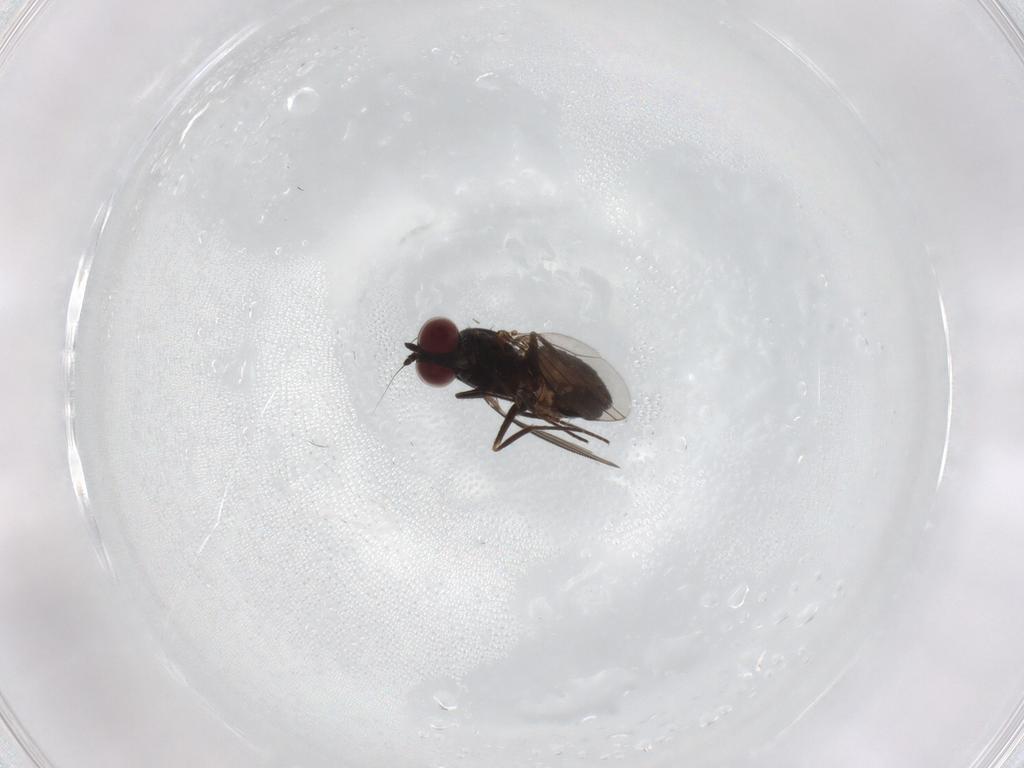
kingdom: Animalia
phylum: Arthropoda
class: Insecta
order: Diptera
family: Dolichopodidae
